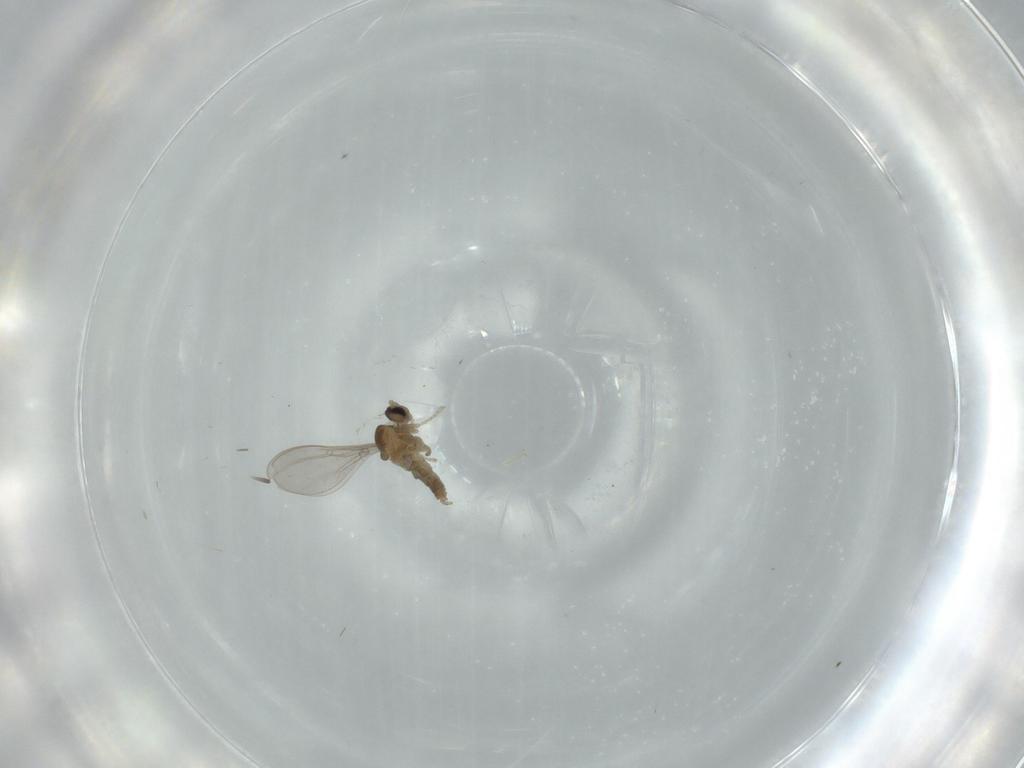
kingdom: Animalia
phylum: Arthropoda
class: Insecta
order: Diptera
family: Cecidomyiidae
